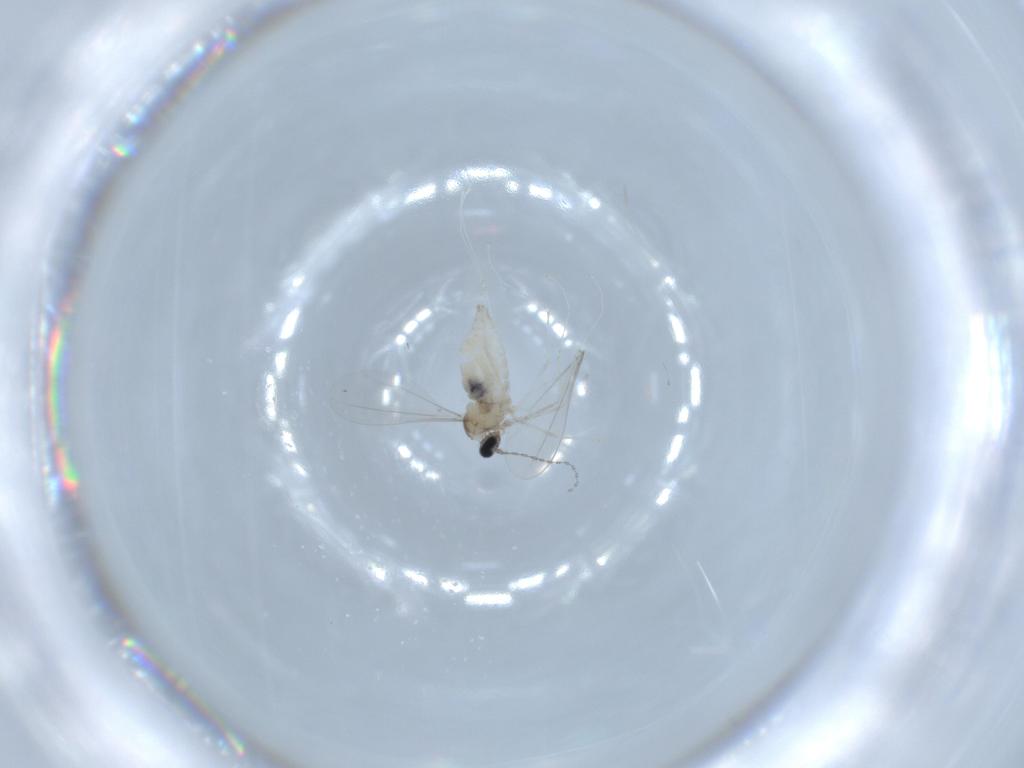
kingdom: Animalia
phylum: Arthropoda
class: Insecta
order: Diptera
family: Cecidomyiidae
